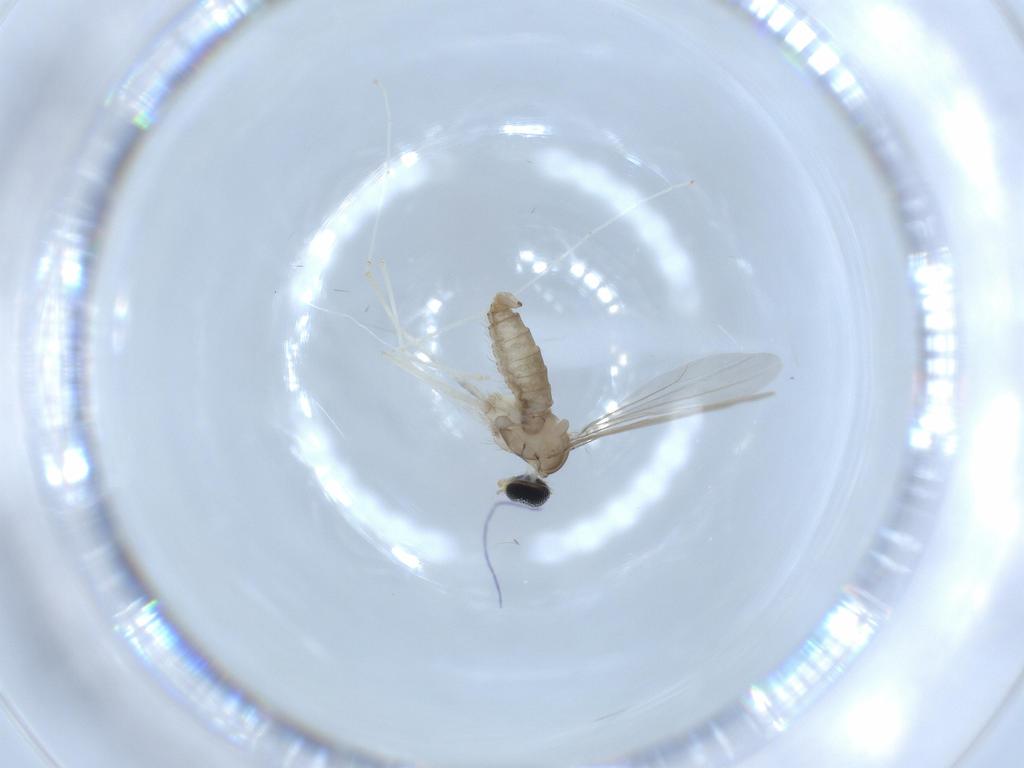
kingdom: Animalia
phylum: Arthropoda
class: Insecta
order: Diptera
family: Cecidomyiidae
